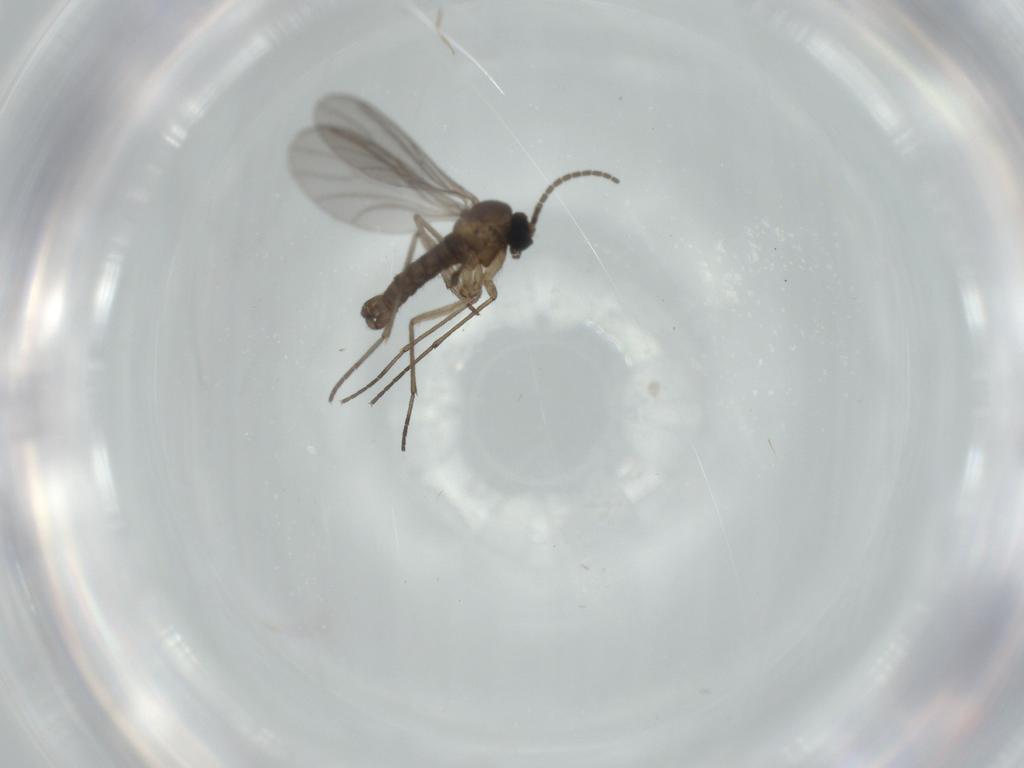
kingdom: Animalia
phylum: Arthropoda
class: Insecta
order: Diptera
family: Sciaridae
